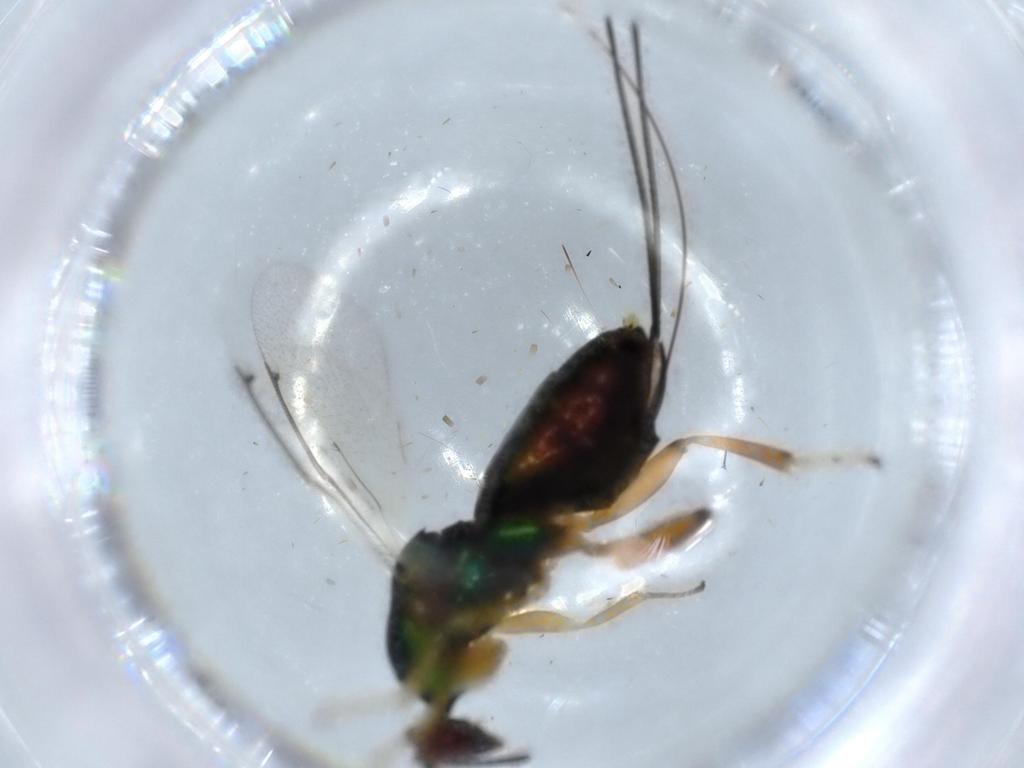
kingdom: Animalia
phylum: Arthropoda
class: Insecta
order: Hymenoptera
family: Torymidae
